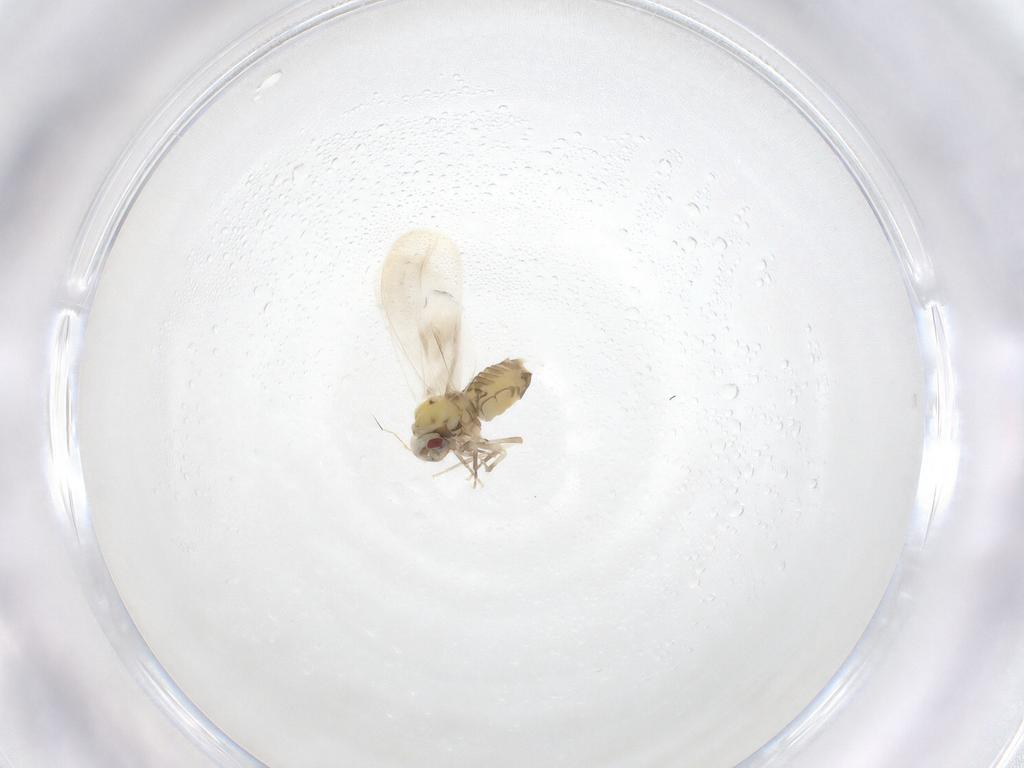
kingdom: Animalia
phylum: Arthropoda
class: Insecta
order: Hemiptera
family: Aleyrodidae
